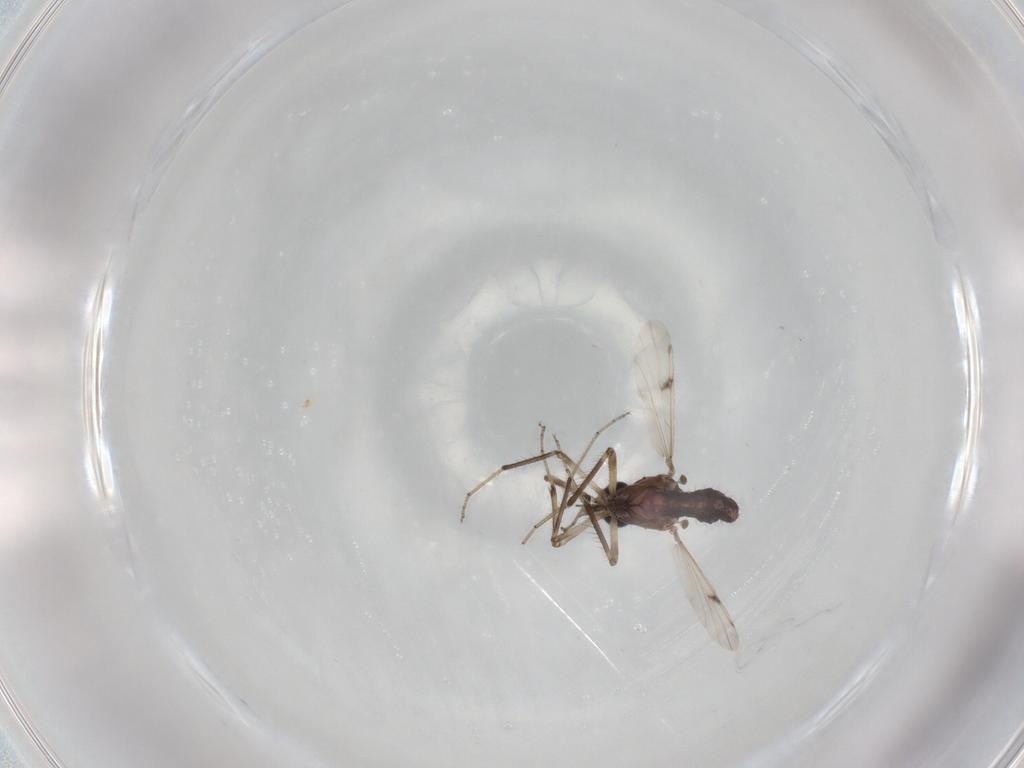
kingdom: Animalia
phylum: Arthropoda
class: Insecta
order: Diptera
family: Ceratopogonidae
